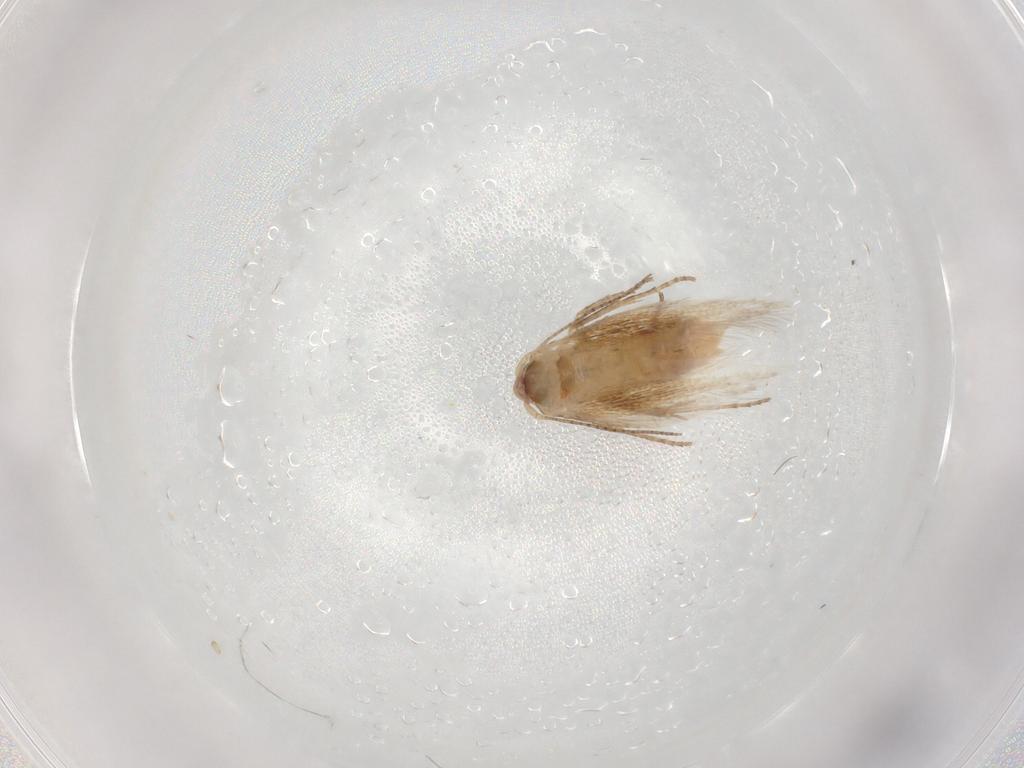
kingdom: Animalia
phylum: Arthropoda
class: Insecta
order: Lepidoptera
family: Bucculatricidae
